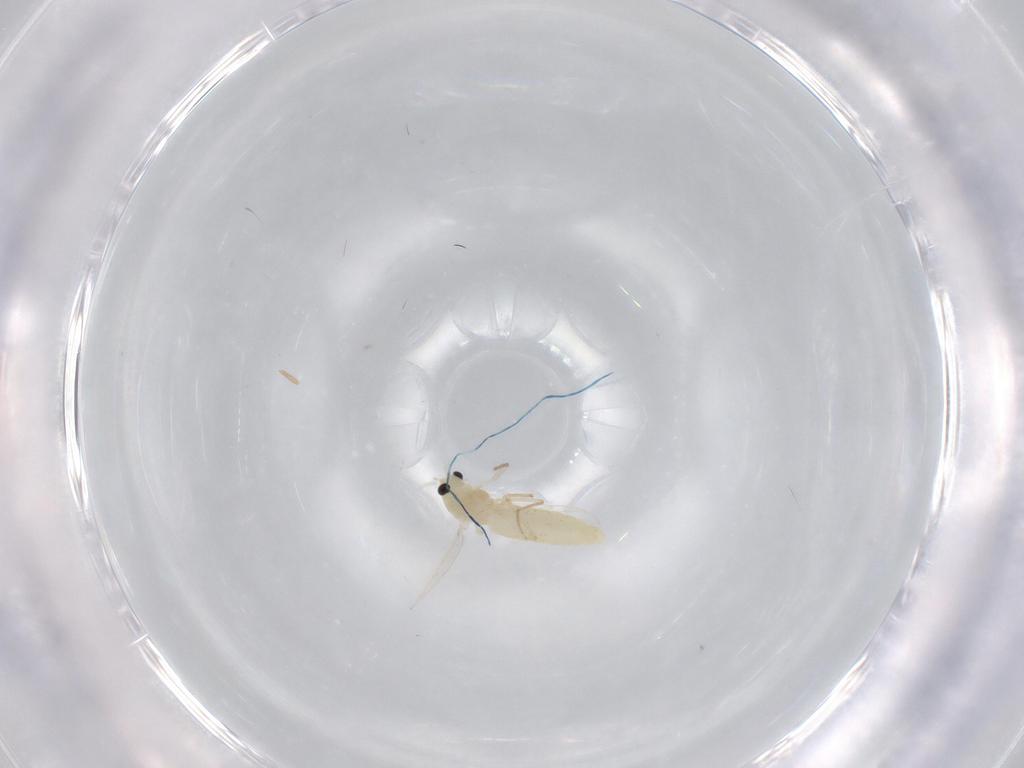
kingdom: Animalia
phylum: Arthropoda
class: Insecta
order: Diptera
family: Chironomidae
